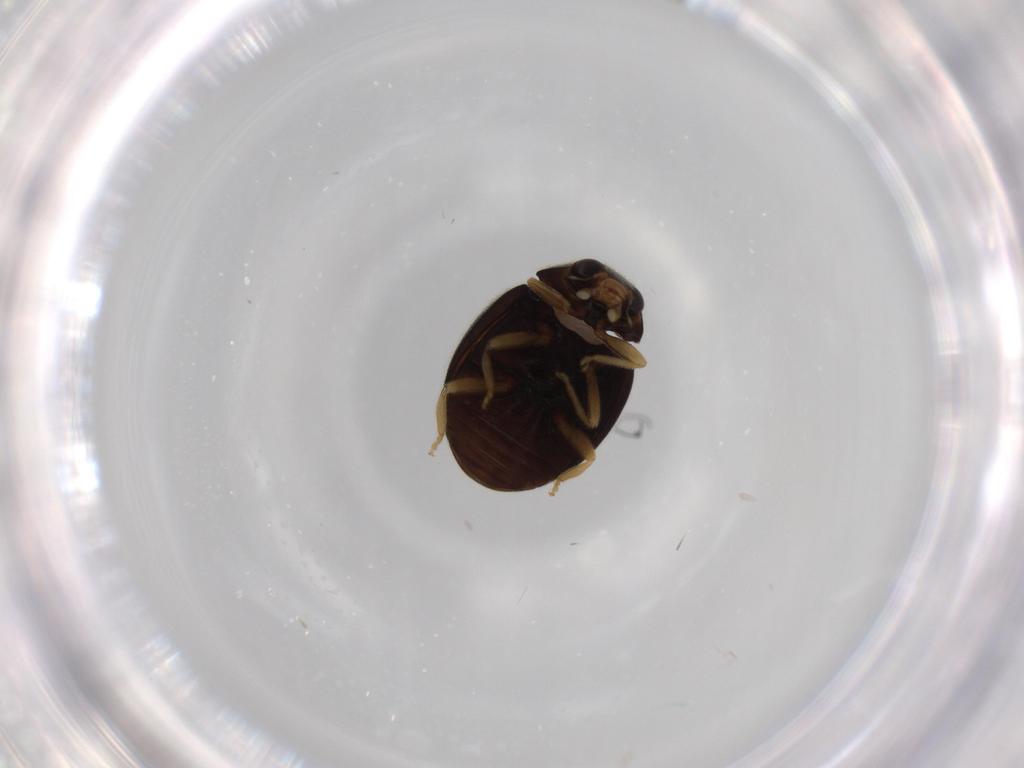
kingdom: Animalia
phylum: Arthropoda
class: Insecta
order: Coleoptera
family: Coccinellidae
